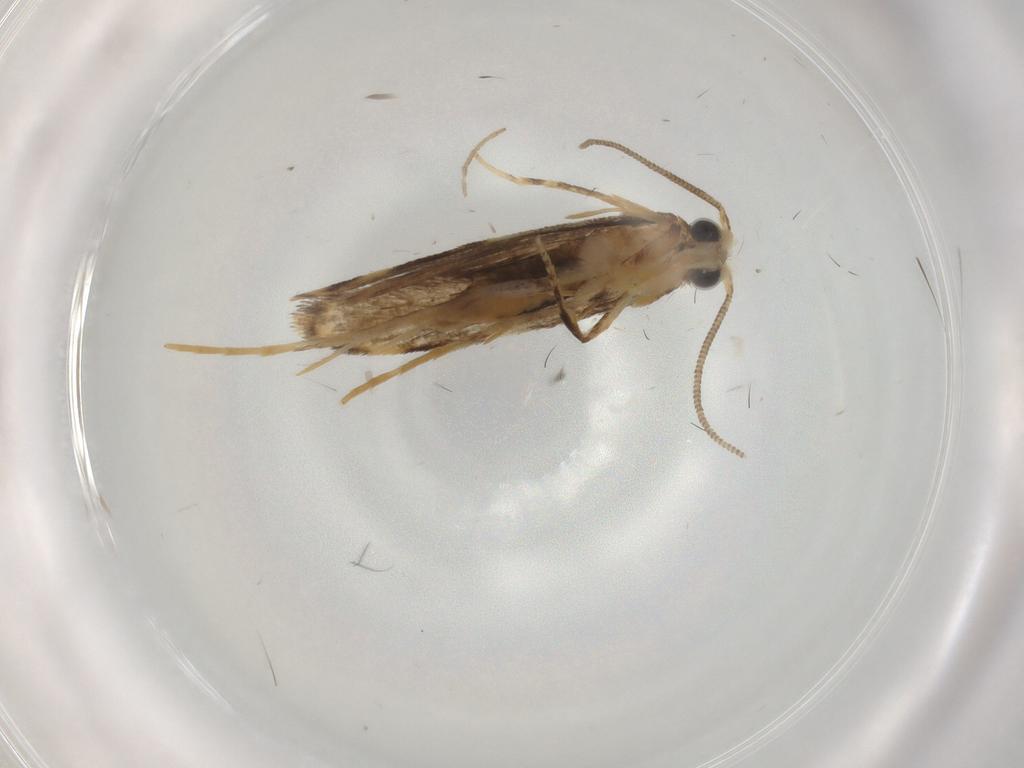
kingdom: Animalia
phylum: Arthropoda
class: Insecta
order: Lepidoptera
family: Tineidae
